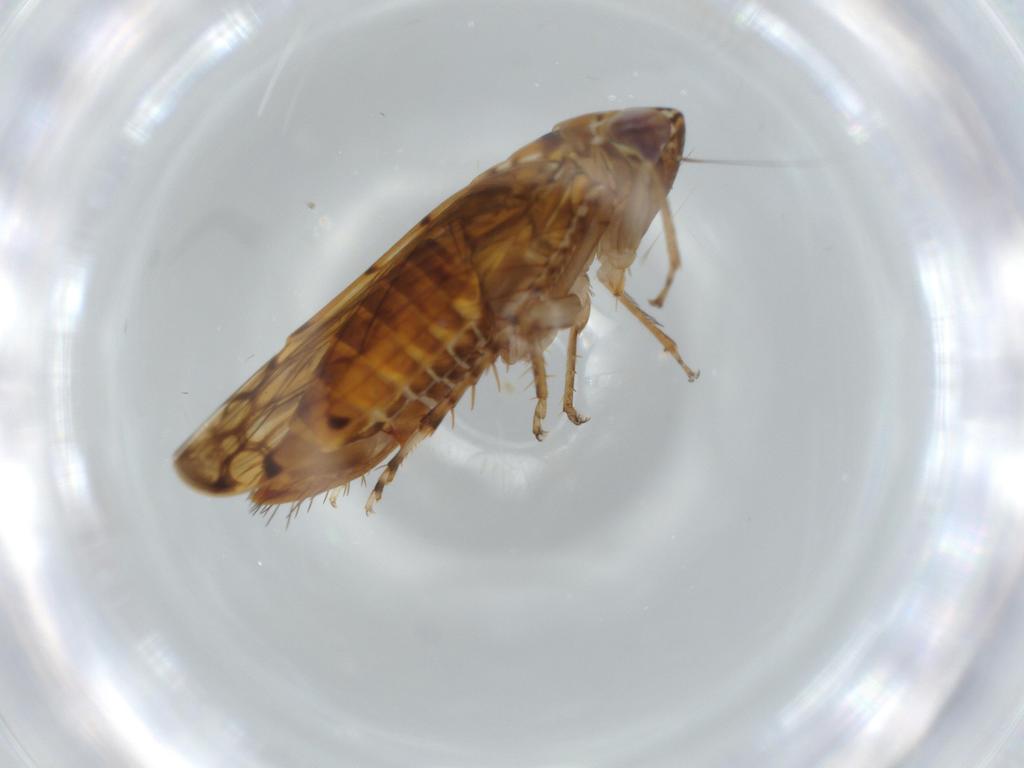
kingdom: Animalia
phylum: Arthropoda
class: Insecta
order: Hemiptera
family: Cicadellidae
